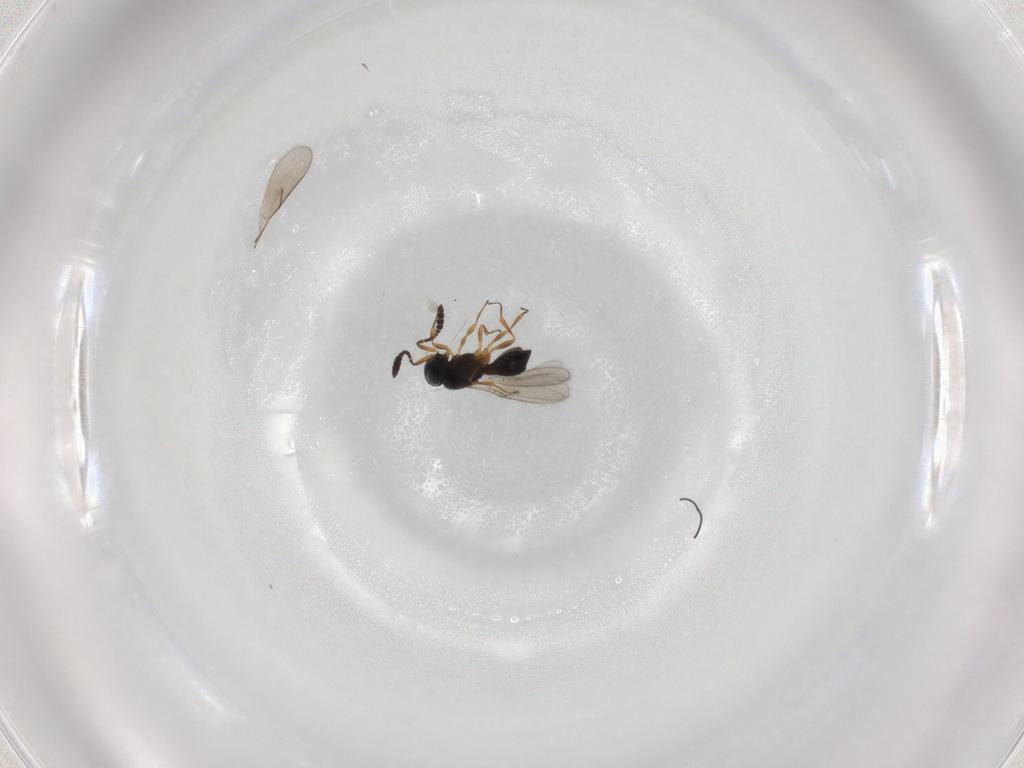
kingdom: Animalia
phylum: Arthropoda
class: Insecta
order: Hymenoptera
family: Scelionidae
